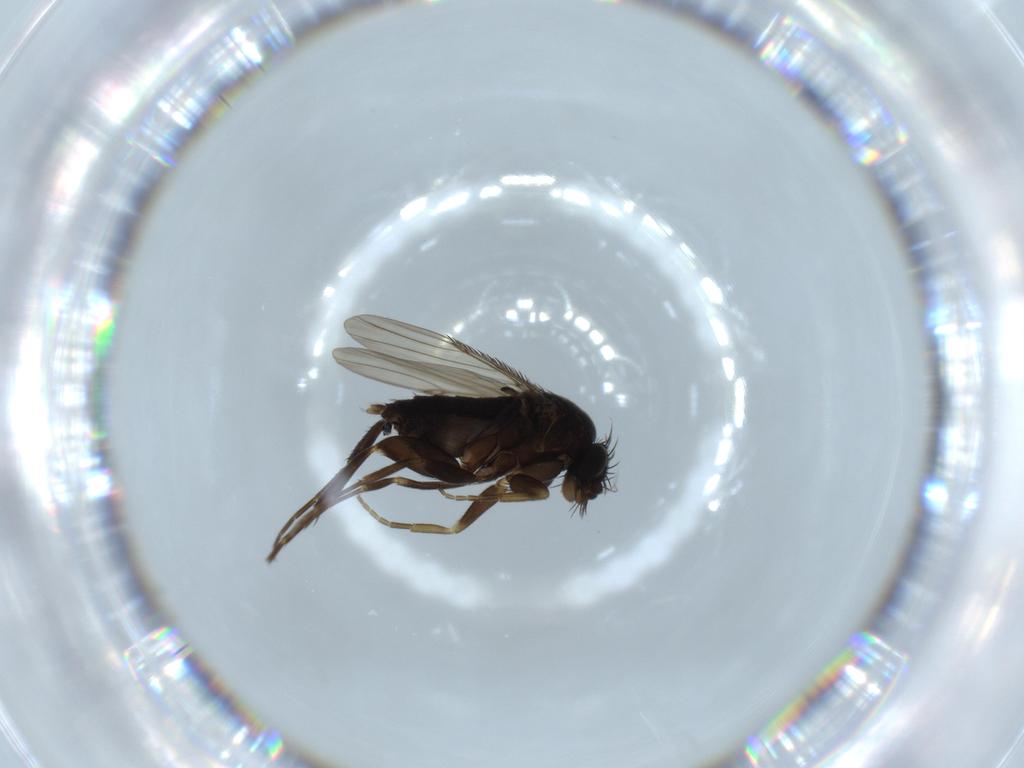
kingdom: Animalia
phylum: Arthropoda
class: Insecta
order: Diptera
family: Phoridae
